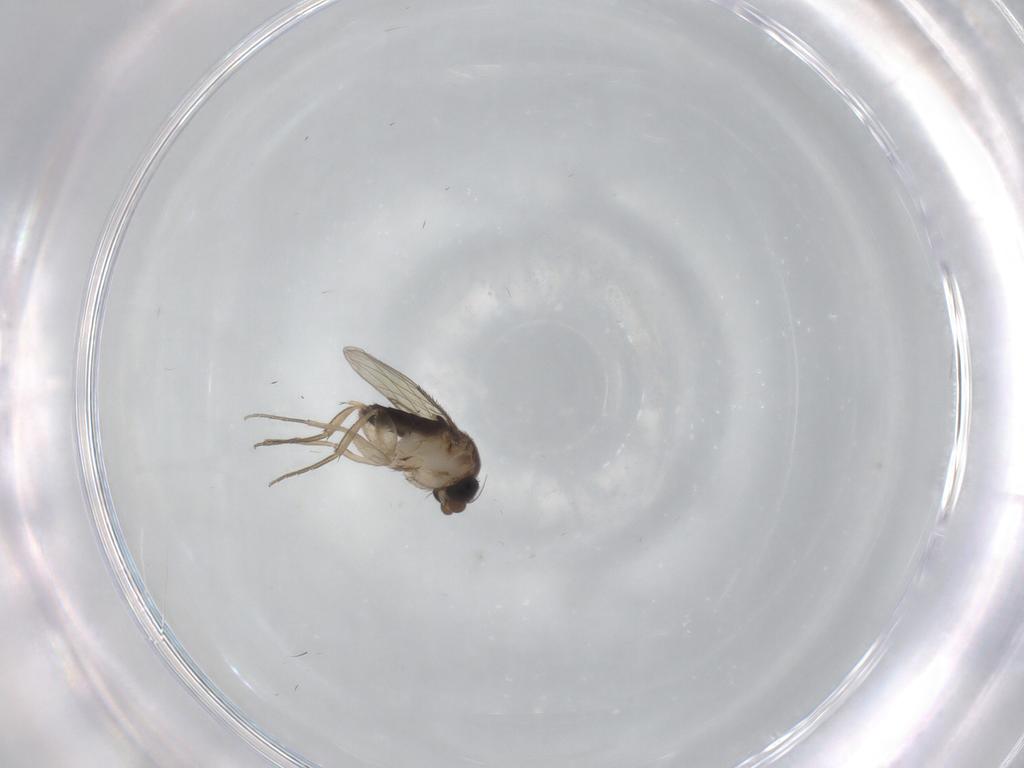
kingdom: Animalia
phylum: Arthropoda
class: Insecta
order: Diptera
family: Phoridae
